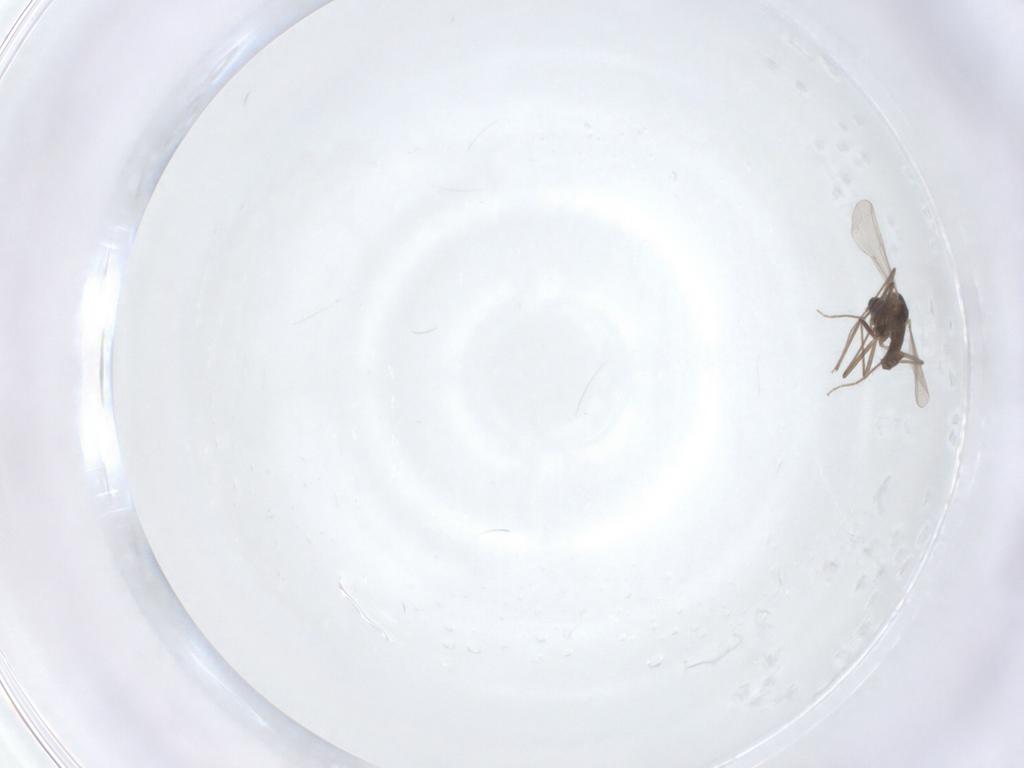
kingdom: Animalia
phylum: Arthropoda
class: Insecta
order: Diptera
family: Chironomidae
